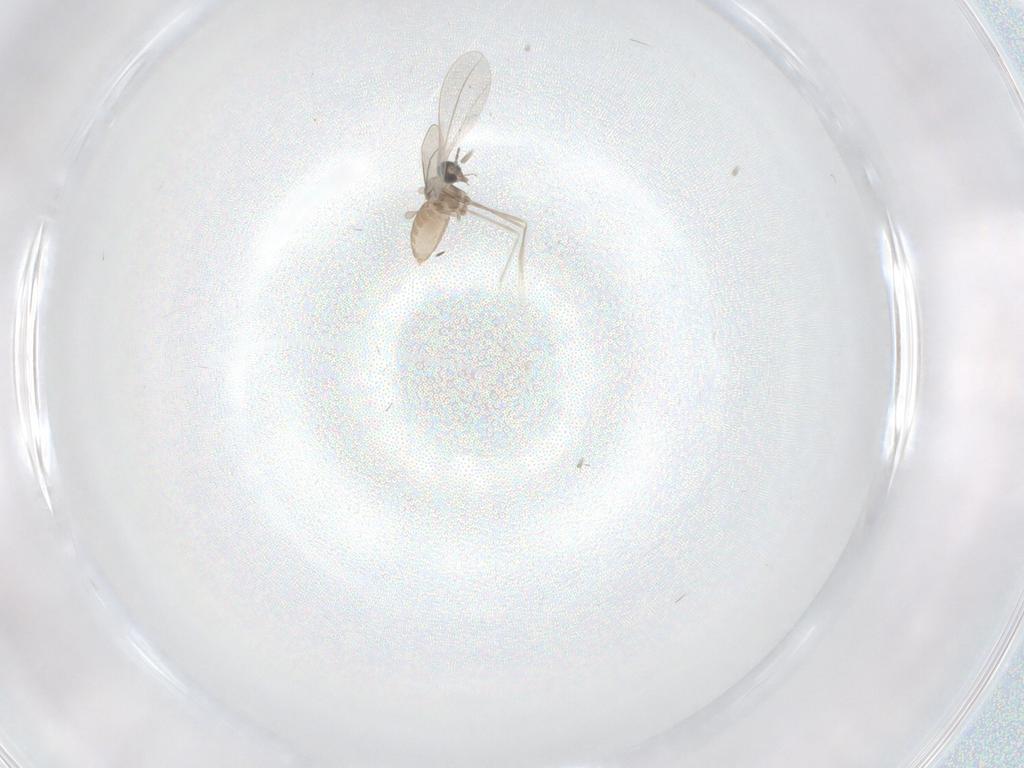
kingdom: Animalia
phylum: Arthropoda
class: Insecta
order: Diptera
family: Cecidomyiidae
